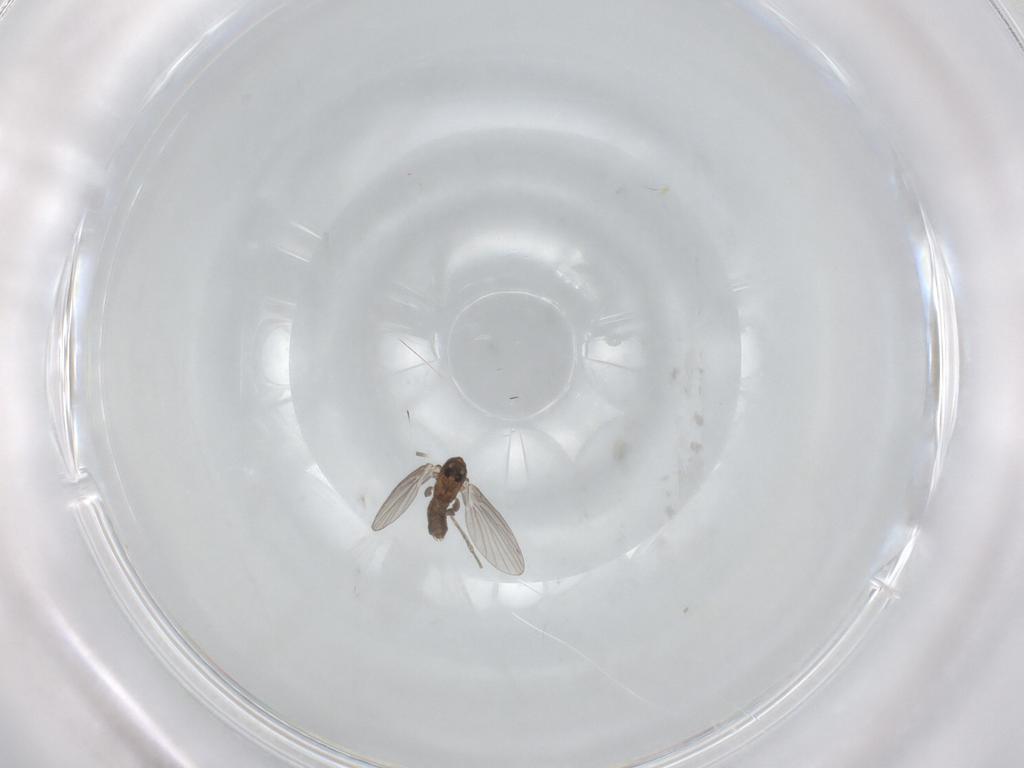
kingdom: Animalia
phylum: Arthropoda
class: Insecta
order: Diptera
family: Psychodidae
